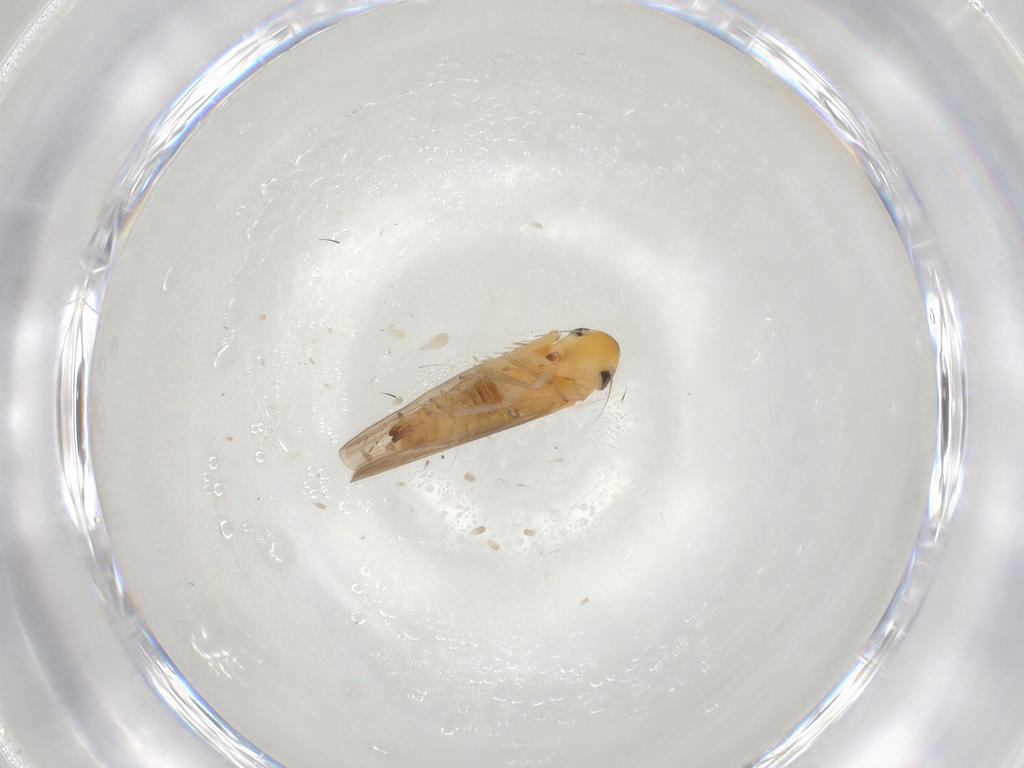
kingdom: Animalia
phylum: Arthropoda
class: Insecta
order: Hemiptera
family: Cicadellidae
